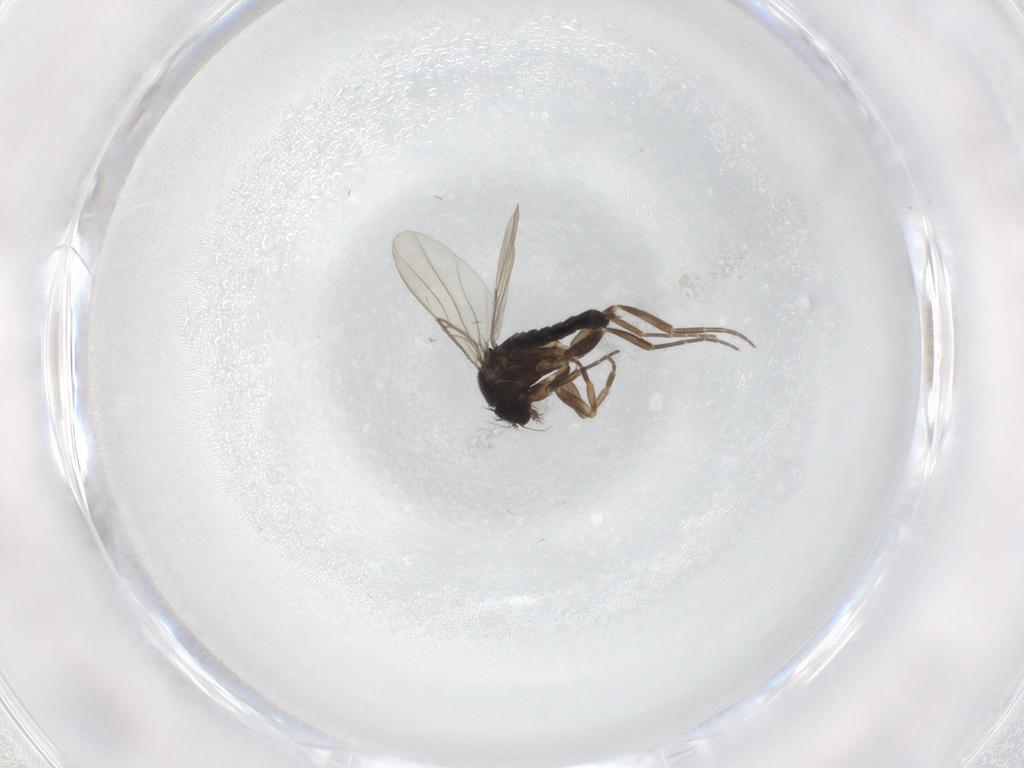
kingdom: Animalia
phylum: Arthropoda
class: Insecta
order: Diptera
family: Phoridae
